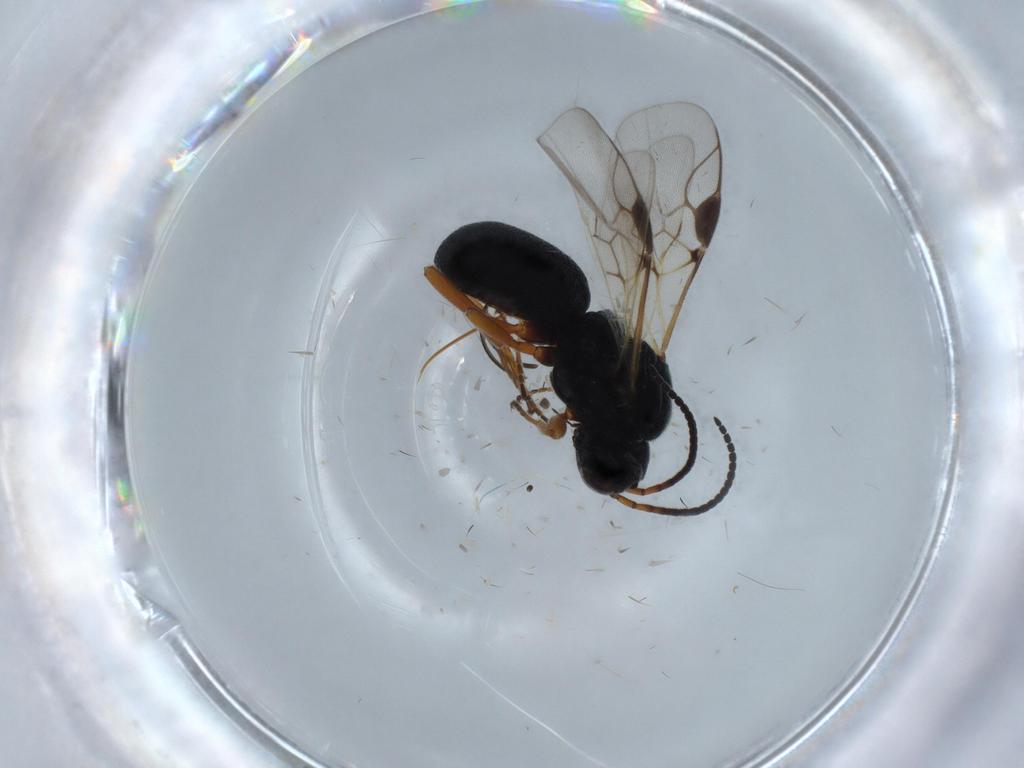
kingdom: Animalia
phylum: Arthropoda
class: Insecta
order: Hymenoptera
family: Braconidae
